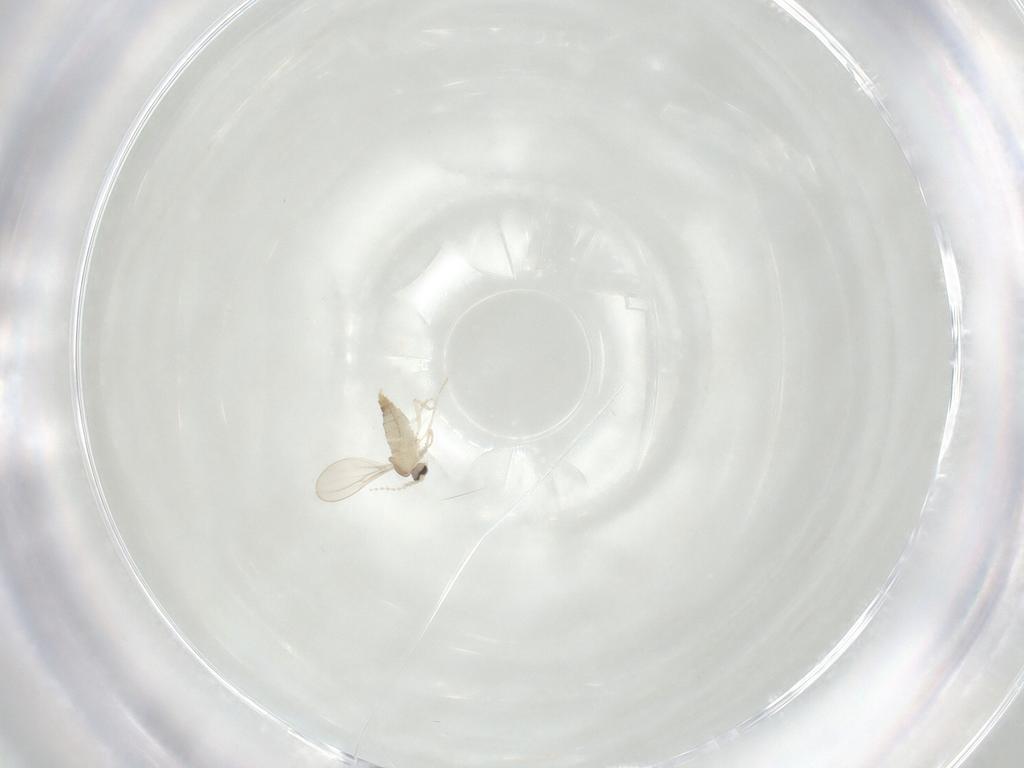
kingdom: Animalia
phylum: Arthropoda
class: Insecta
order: Diptera
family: Cecidomyiidae
